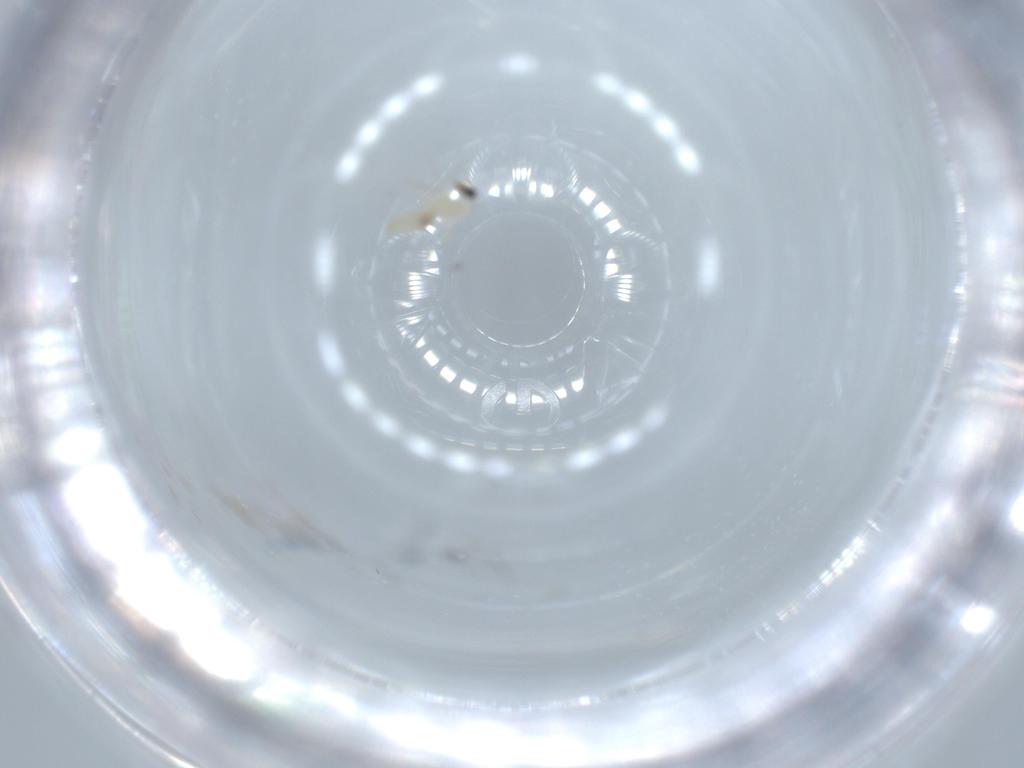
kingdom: Animalia
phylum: Arthropoda
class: Insecta
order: Diptera
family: Cecidomyiidae
